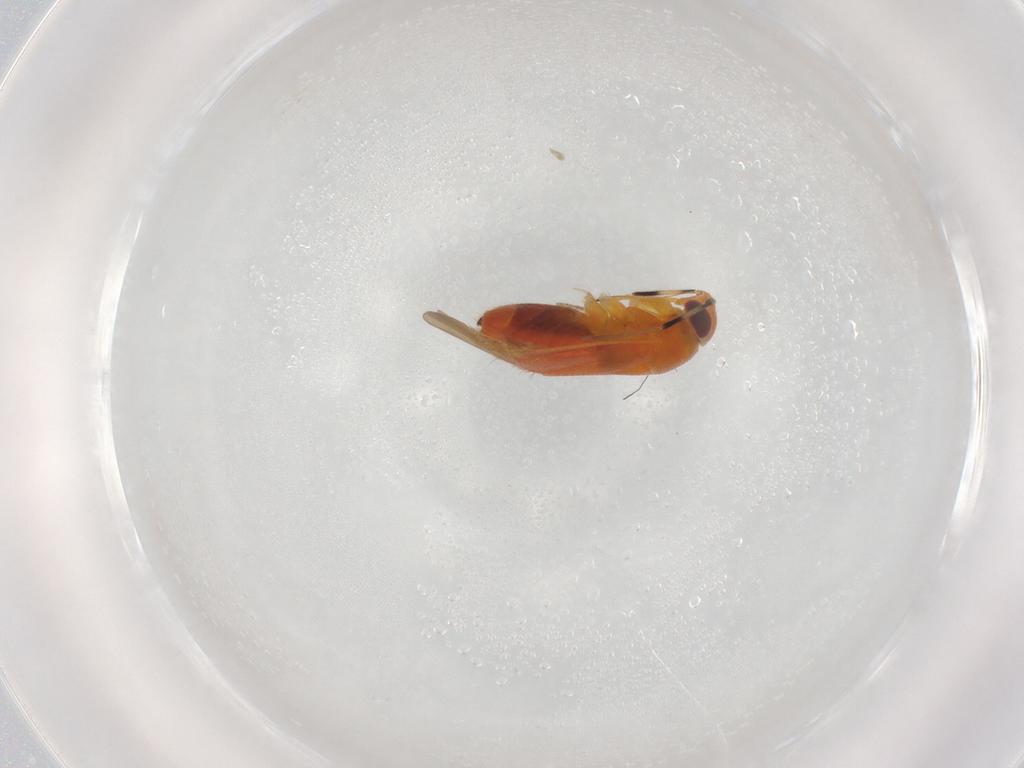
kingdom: Animalia
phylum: Arthropoda
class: Insecta
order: Hemiptera
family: Miridae
